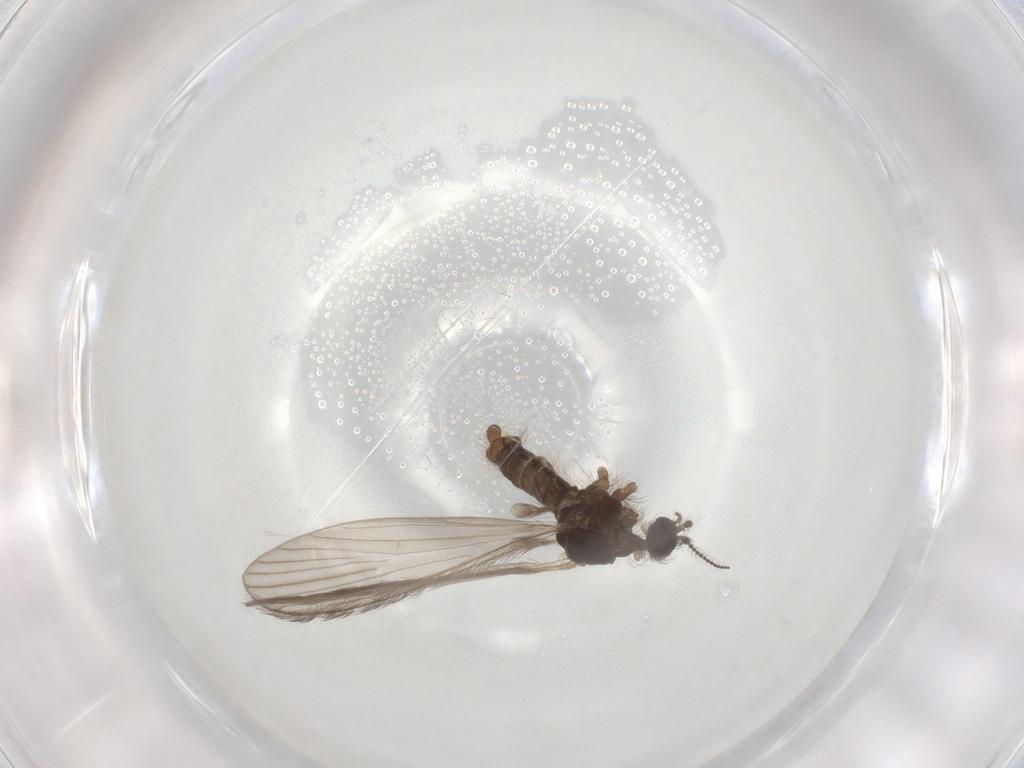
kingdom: Animalia
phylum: Arthropoda
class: Insecta
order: Diptera
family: Limoniidae
